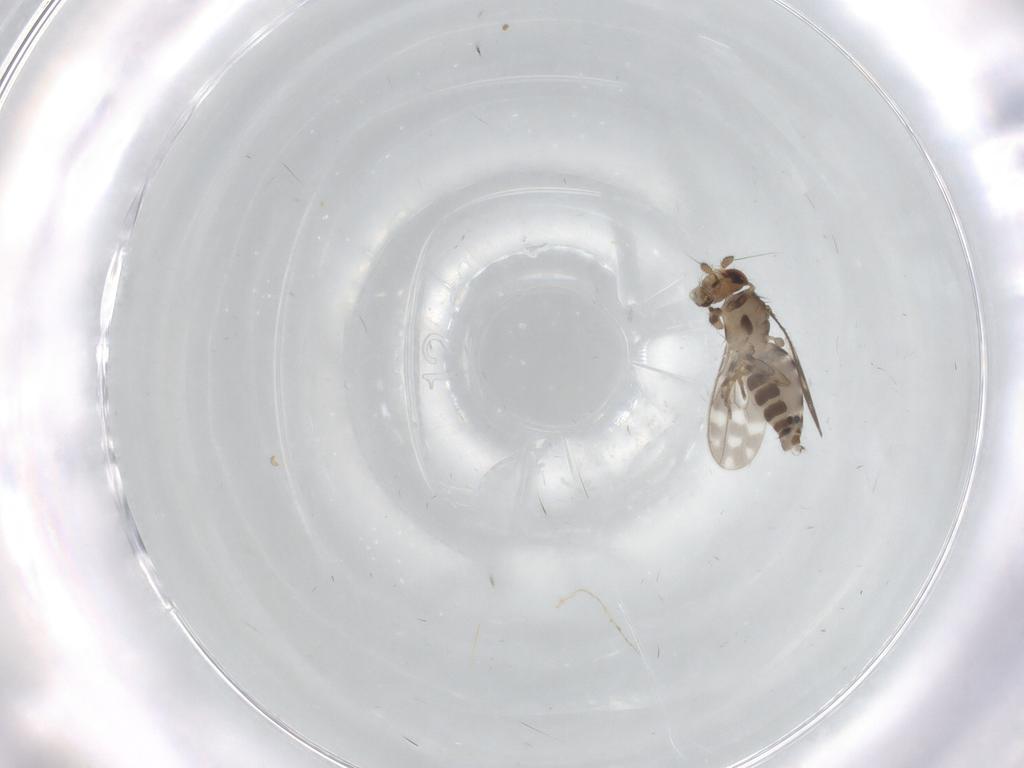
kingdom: Animalia
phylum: Arthropoda
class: Insecta
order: Diptera
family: Sphaeroceridae
